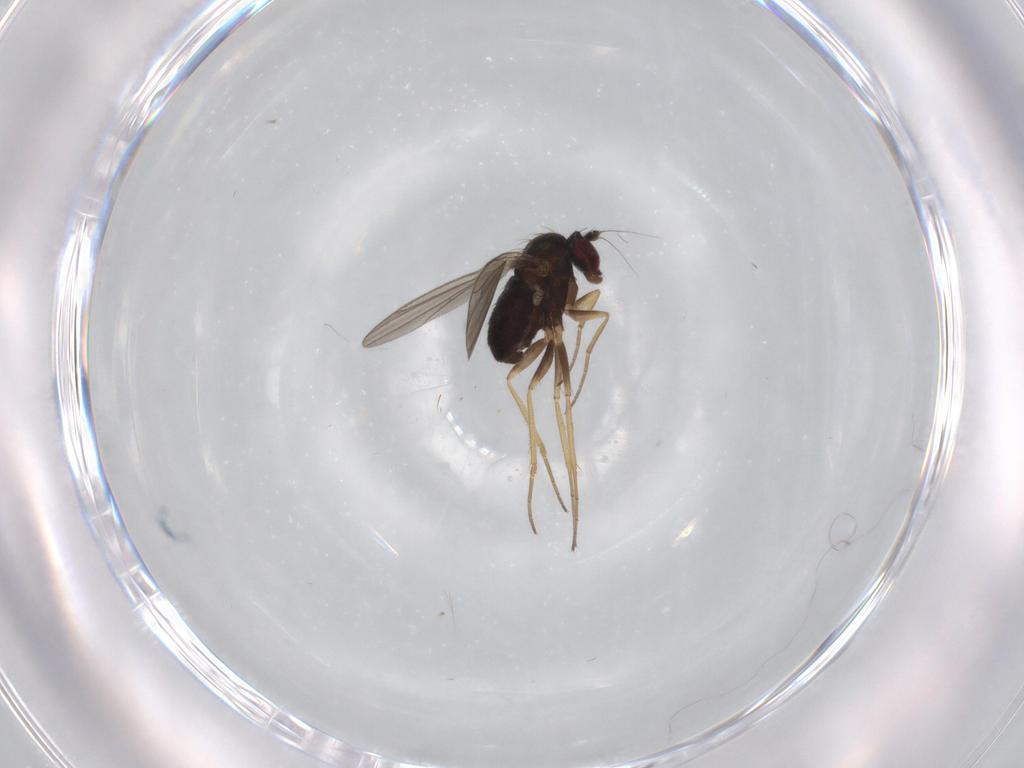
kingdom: Animalia
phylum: Arthropoda
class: Insecta
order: Diptera
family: Dolichopodidae
